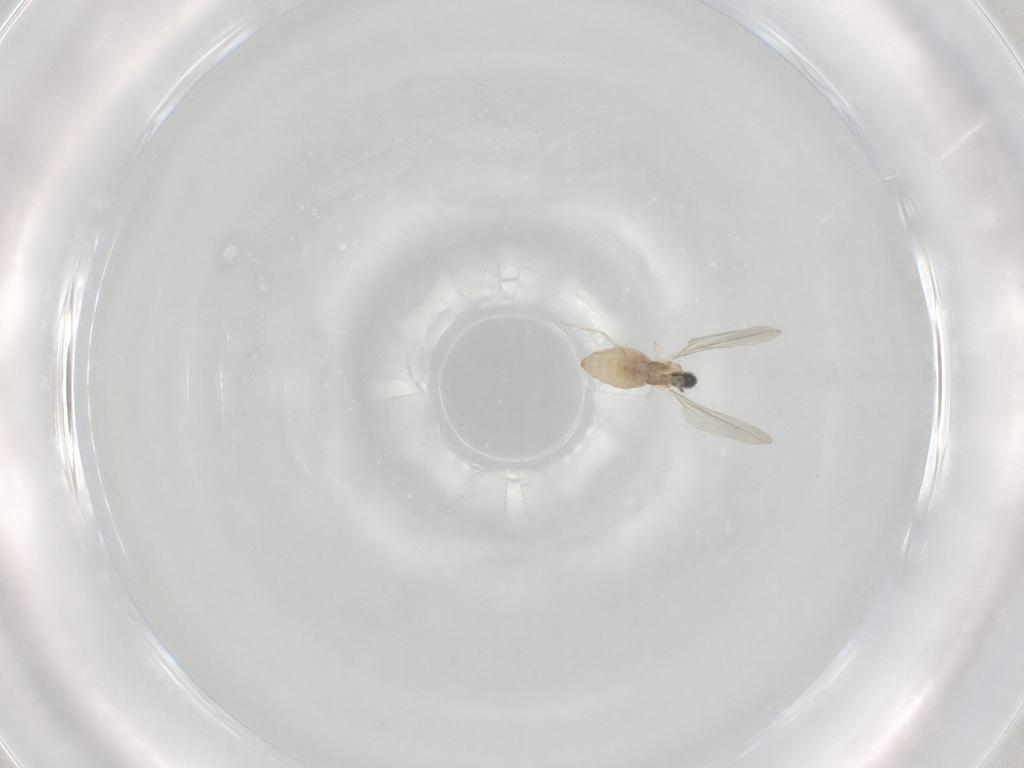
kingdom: Animalia
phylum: Arthropoda
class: Insecta
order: Diptera
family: Cecidomyiidae
